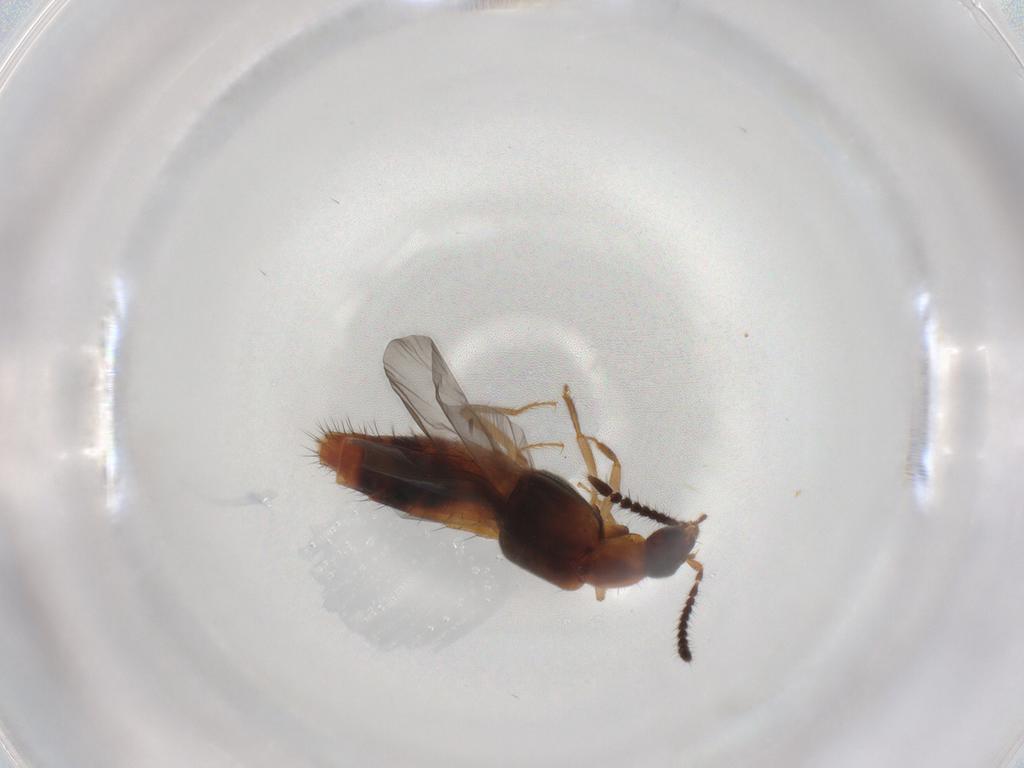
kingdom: Animalia
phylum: Arthropoda
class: Insecta
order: Coleoptera
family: Oedemeridae
